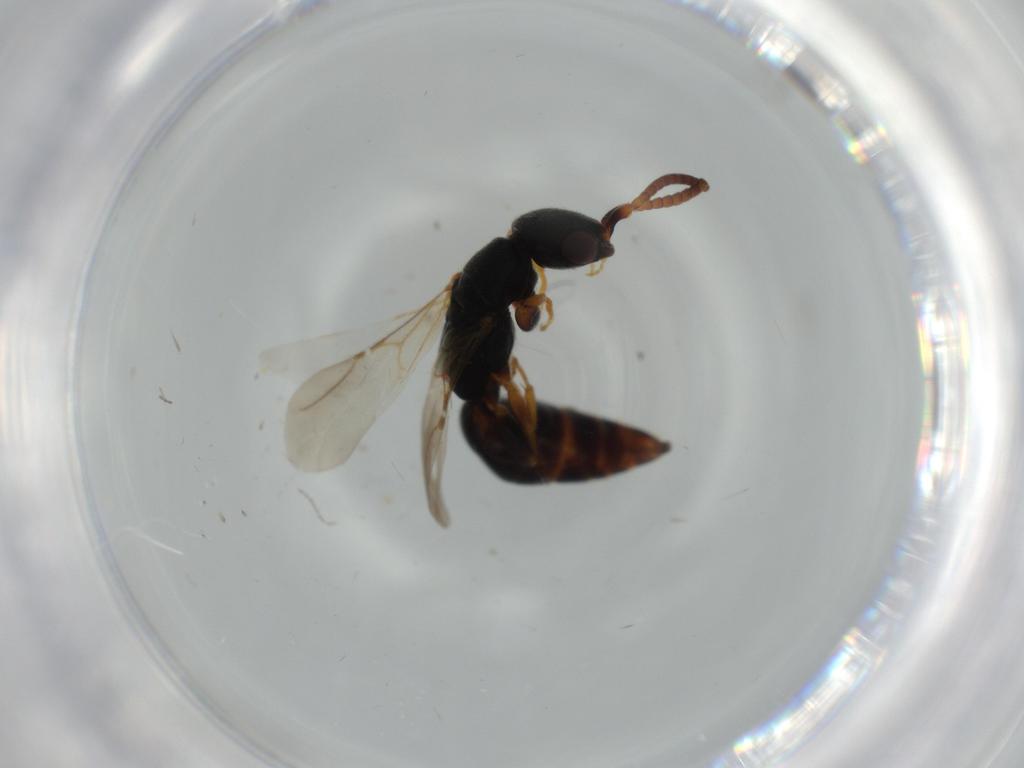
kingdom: Animalia
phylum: Arthropoda
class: Insecta
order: Hymenoptera
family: Bethylidae
